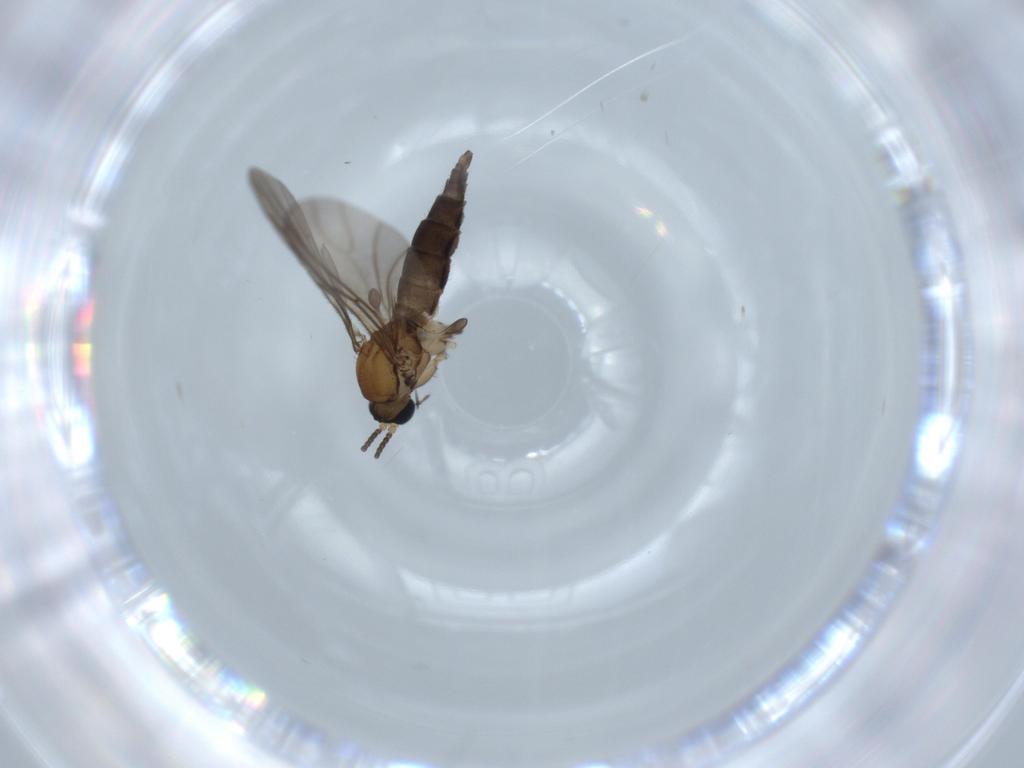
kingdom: Animalia
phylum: Arthropoda
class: Insecta
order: Diptera
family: Sciaridae
